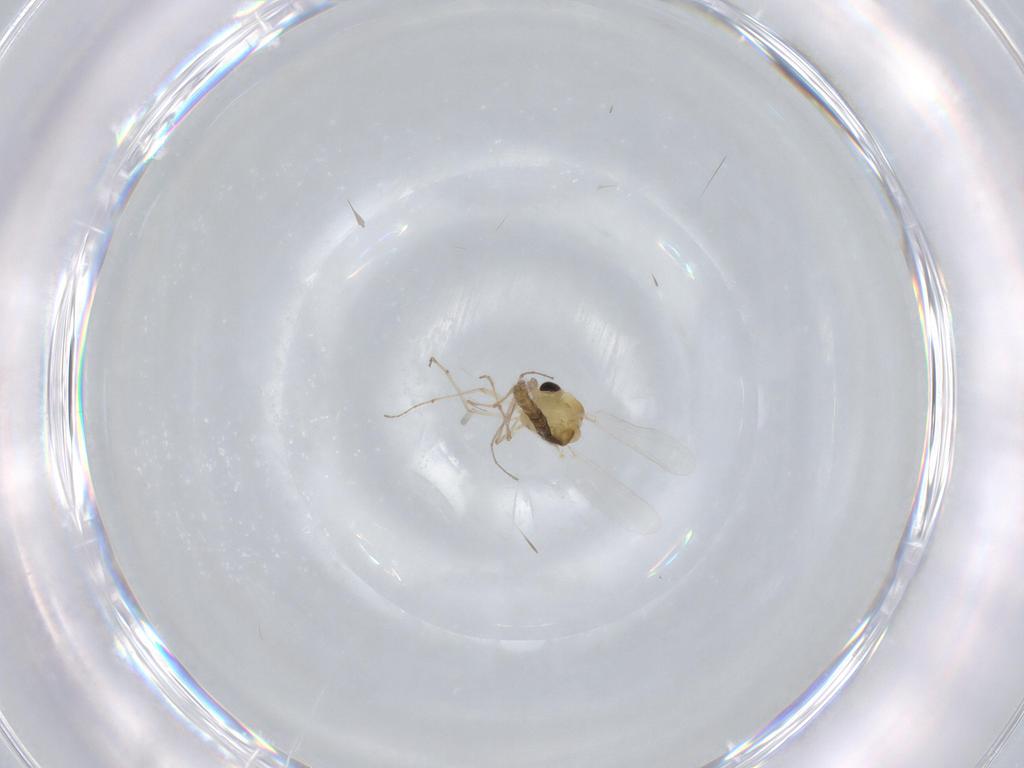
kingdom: Animalia
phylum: Arthropoda
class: Insecta
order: Diptera
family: Chironomidae
